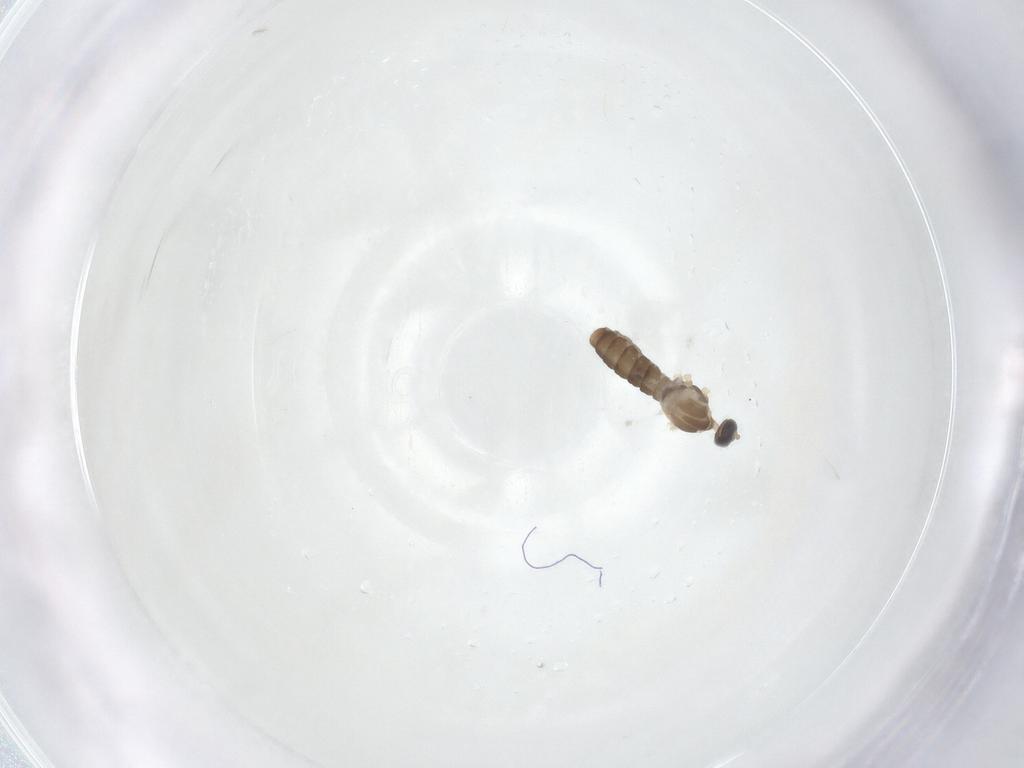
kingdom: Animalia
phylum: Arthropoda
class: Insecta
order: Diptera
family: Cecidomyiidae
